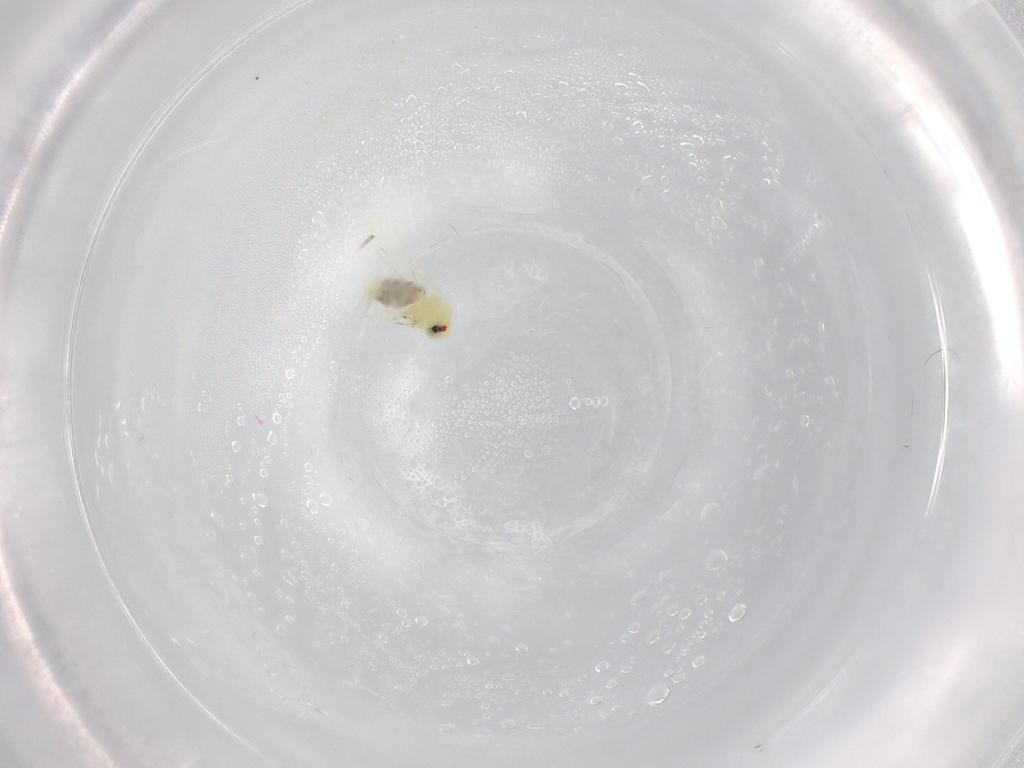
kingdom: Animalia
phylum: Arthropoda
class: Insecta
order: Hemiptera
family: Aleyrodidae
